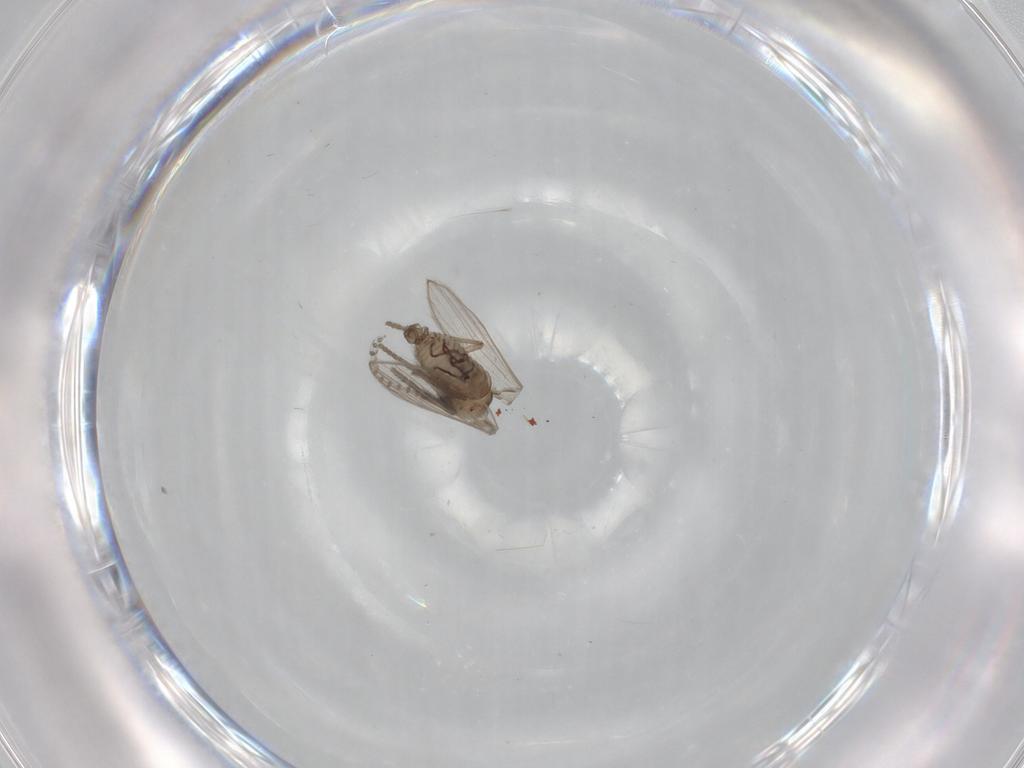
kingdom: Animalia
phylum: Arthropoda
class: Insecta
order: Diptera
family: Psychodidae
